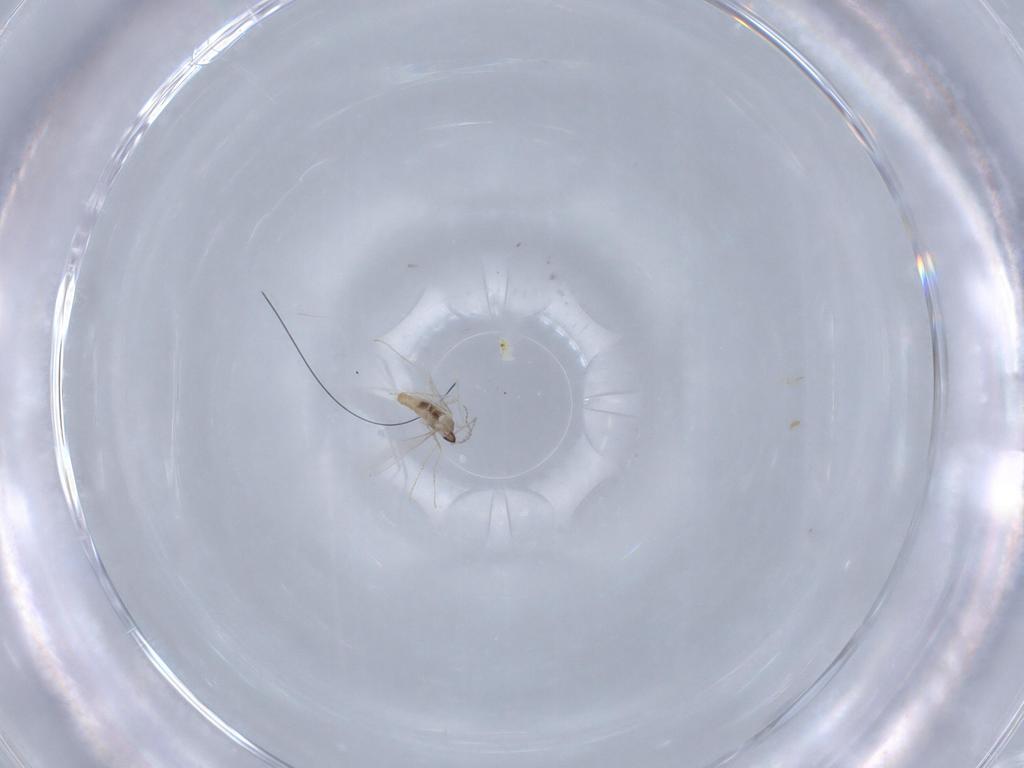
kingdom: Animalia
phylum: Arthropoda
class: Insecta
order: Diptera
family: Cecidomyiidae
